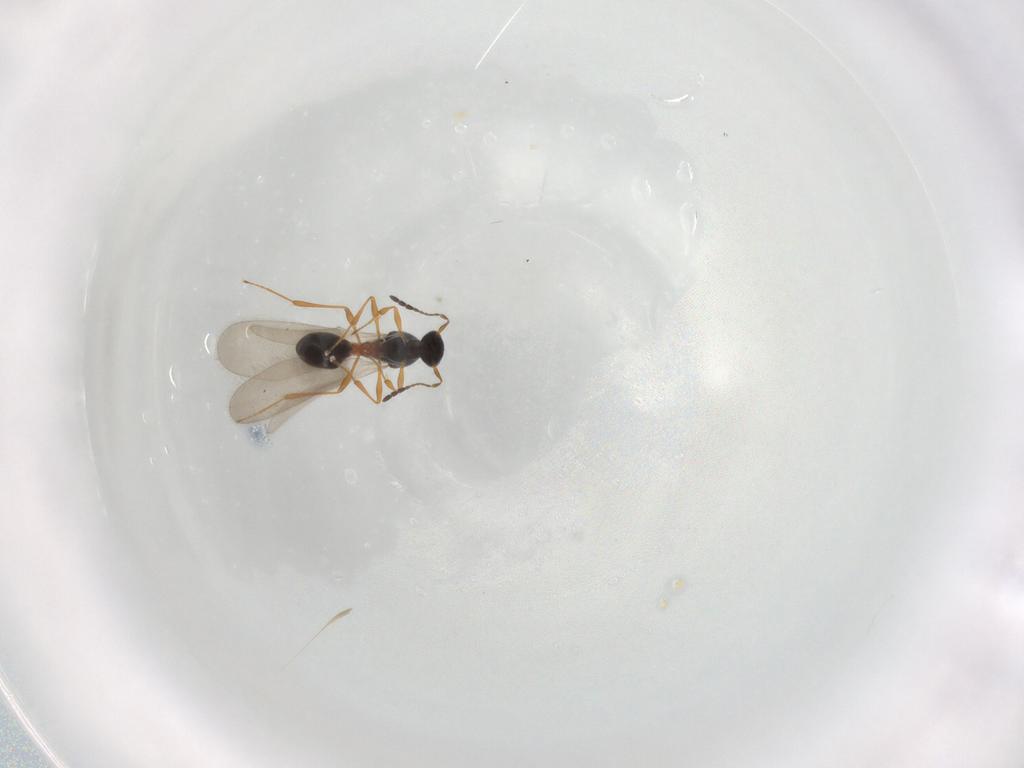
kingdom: Animalia
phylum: Arthropoda
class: Insecta
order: Hymenoptera
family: Platygastridae
